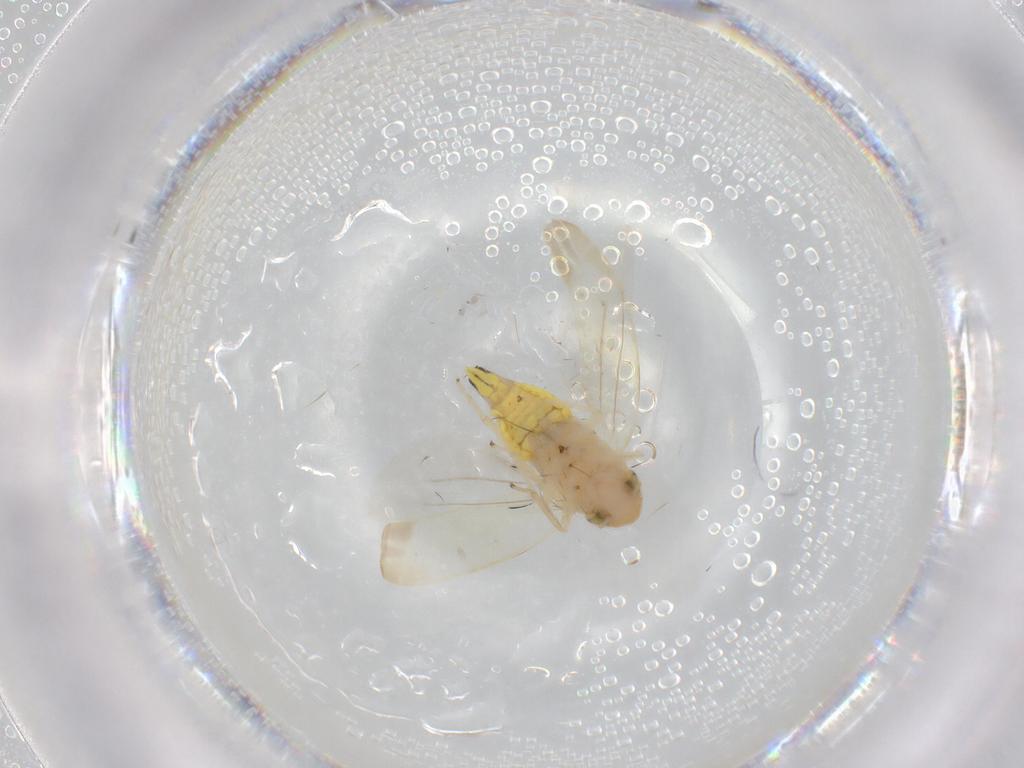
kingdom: Animalia
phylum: Arthropoda
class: Insecta
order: Hemiptera
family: Cicadellidae
